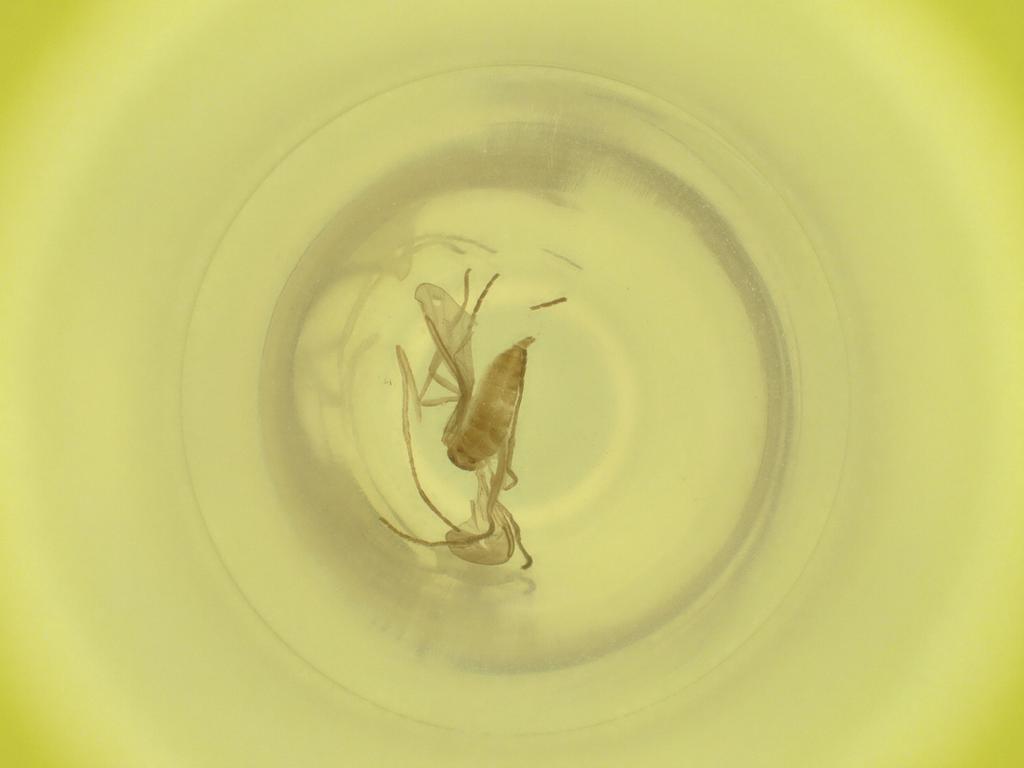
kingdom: Animalia
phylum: Arthropoda
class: Insecta
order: Diptera
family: Cecidomyiidae
